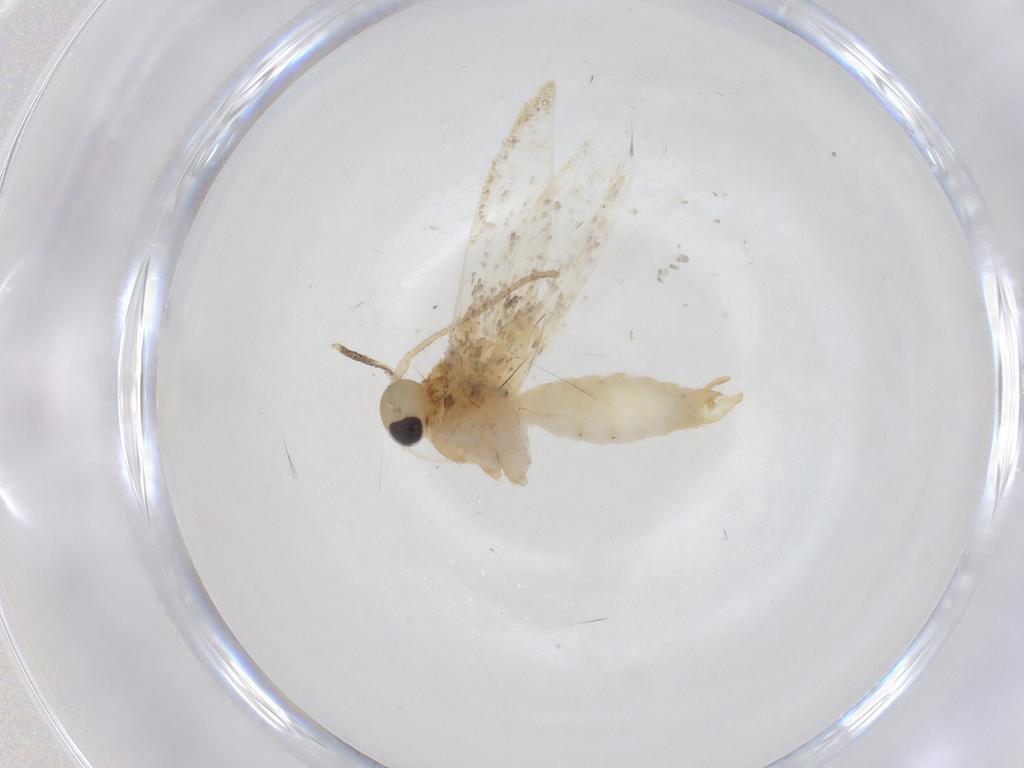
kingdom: Animalia
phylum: Arthropoda
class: Insecta
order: Lepidoptera
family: Erebidae
